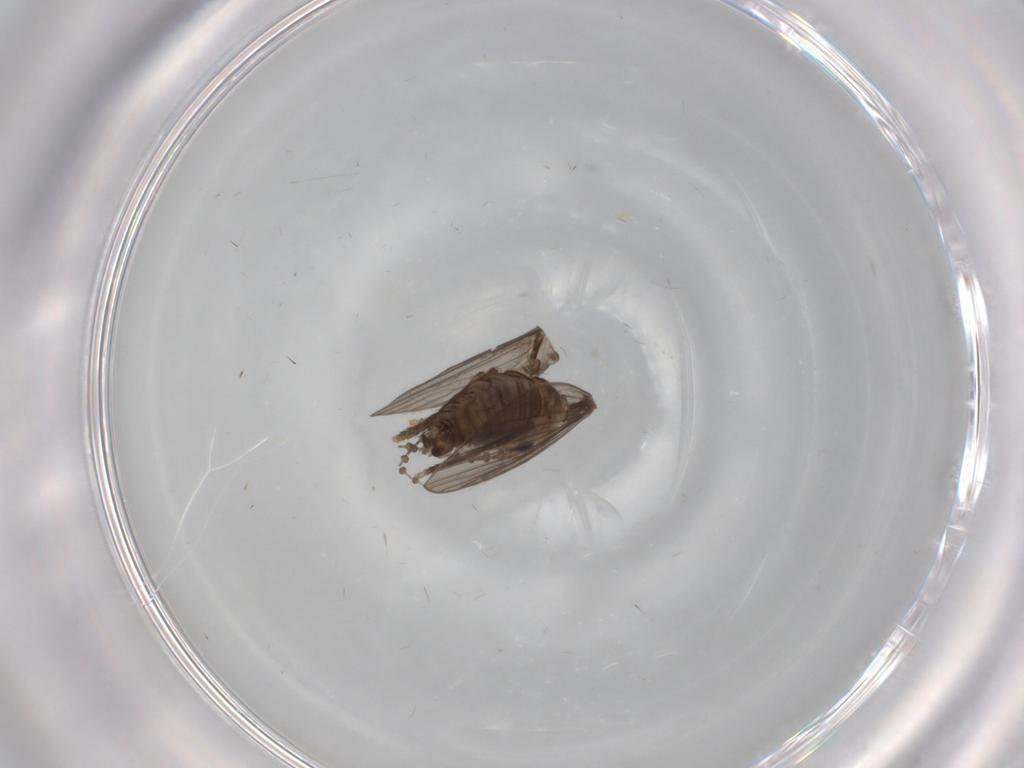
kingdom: Animalia
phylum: Arthropoda
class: Insecta
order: Diptera
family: Psychodidae
